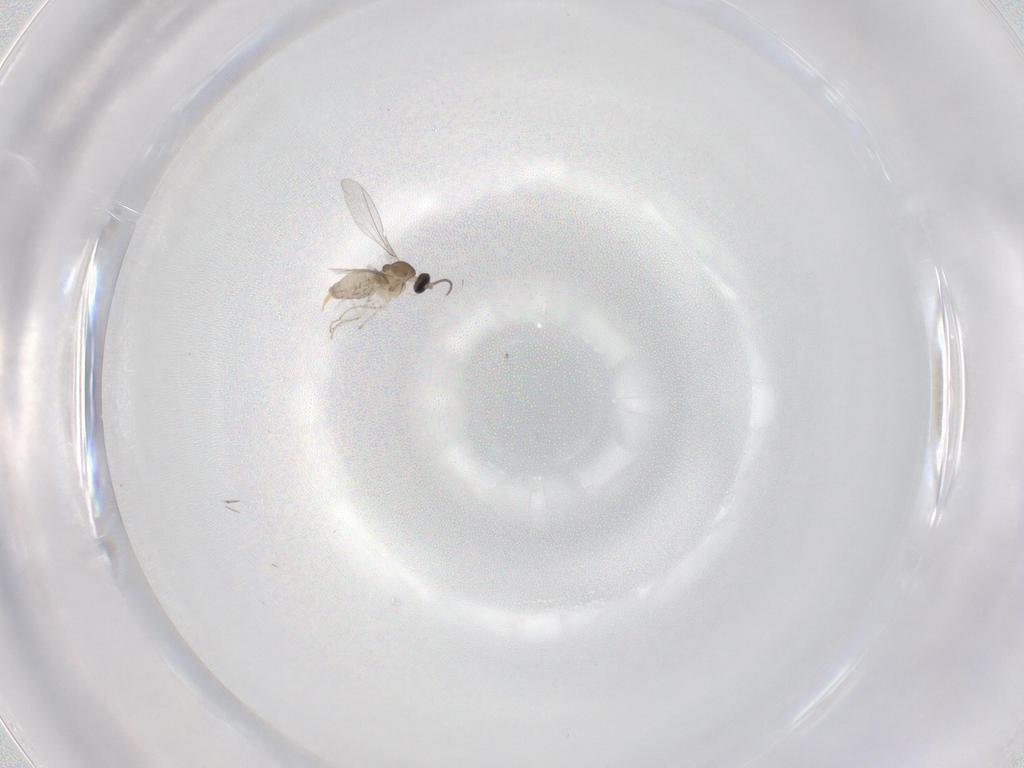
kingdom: Animalia
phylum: Arthropoda
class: Insecta
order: Diptera
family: Cecidomyiidae
